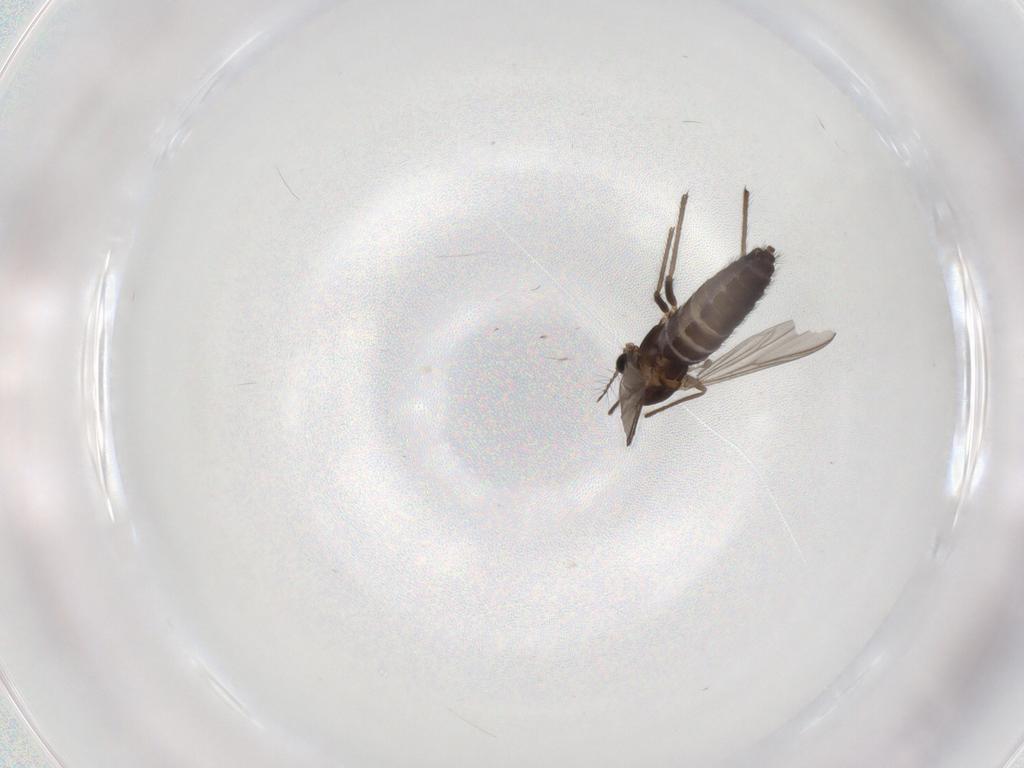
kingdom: Animalia
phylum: Arthropoda
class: Insecta
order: Diptera
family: Chironomidae
